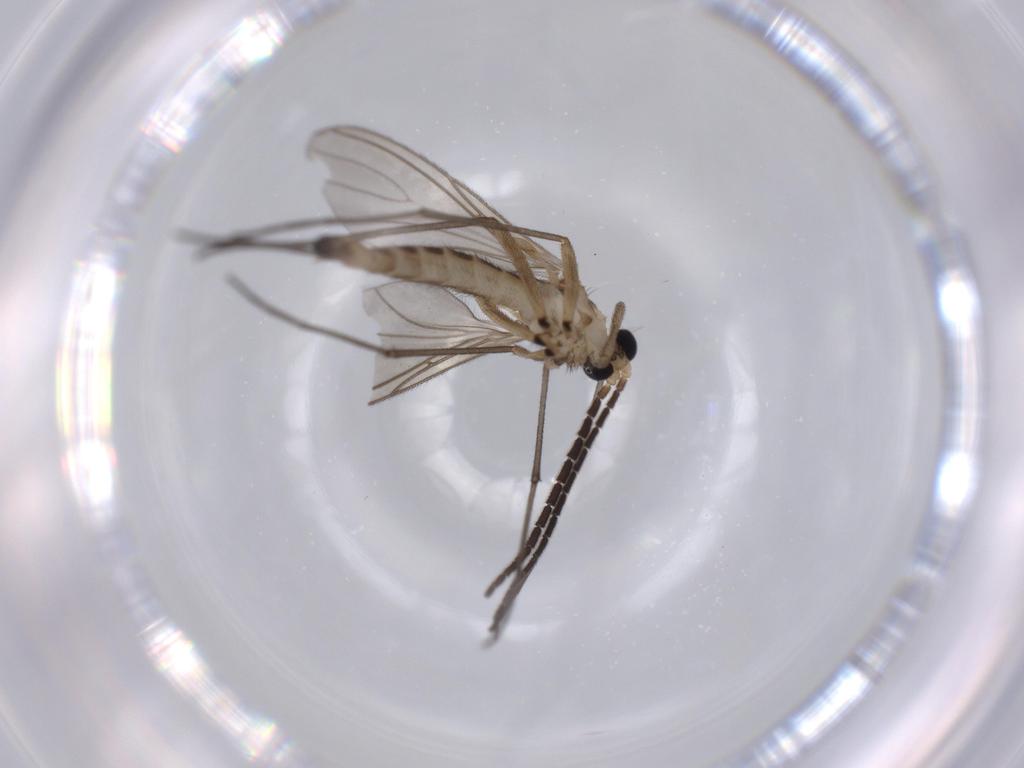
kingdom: Animalia
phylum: Arthropoda
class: Insecta
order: Diptera
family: Sciaridae
